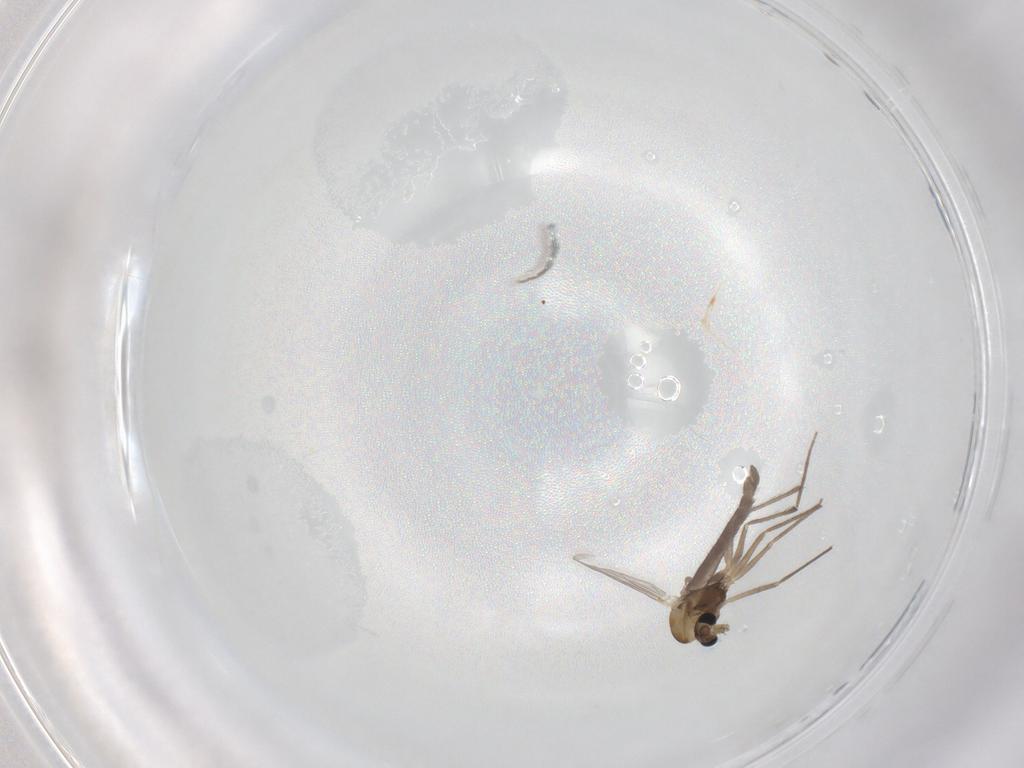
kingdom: Animalia
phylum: Arthropoda
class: Insecta
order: Diptera
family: Chironomidae
